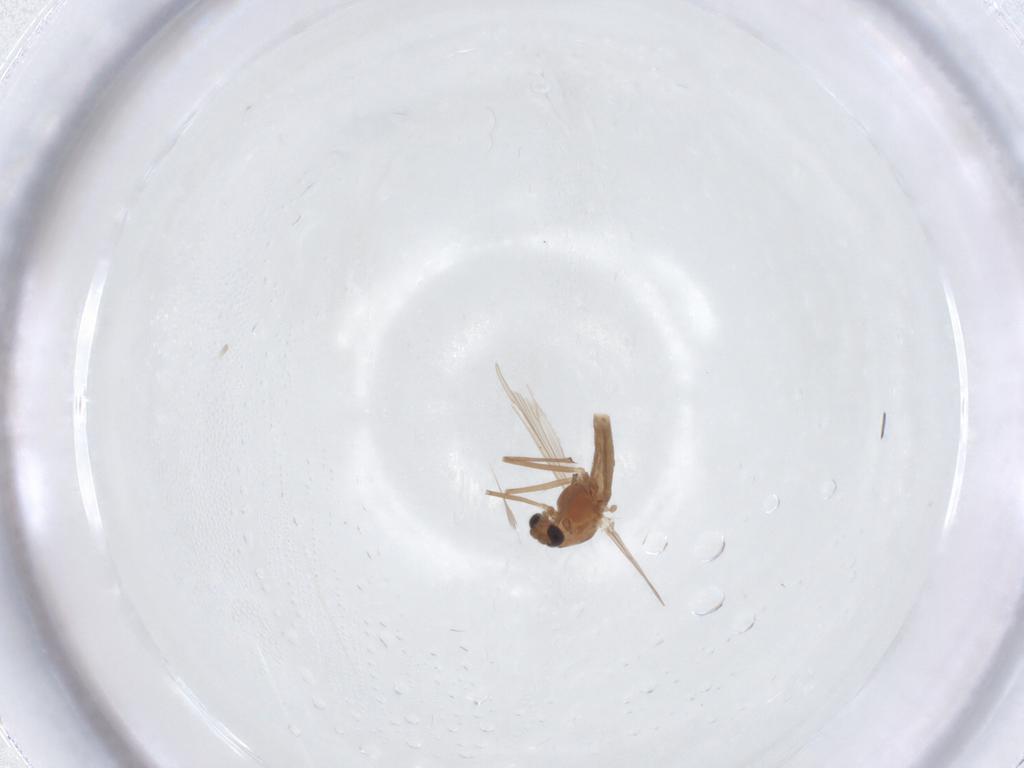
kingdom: Animalia
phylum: Arthropoda
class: Insecta
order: Diptera
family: Chironomidae
